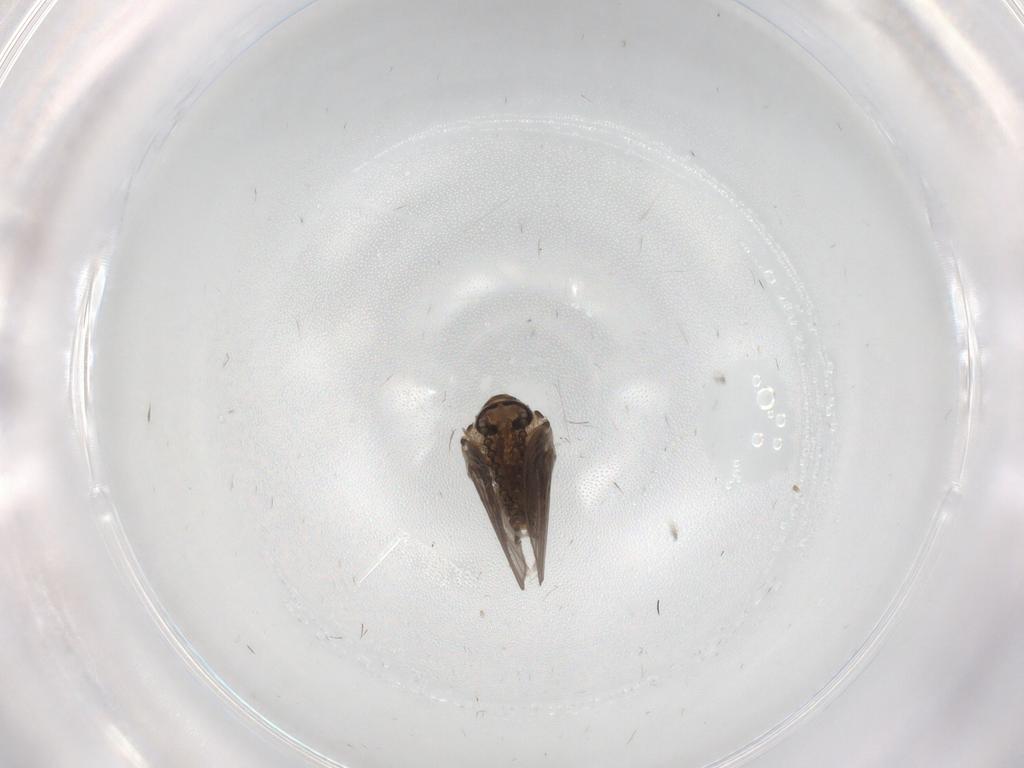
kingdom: Animalia
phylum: Arthropoda
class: Insecta
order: Diptera
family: Psychodidae
